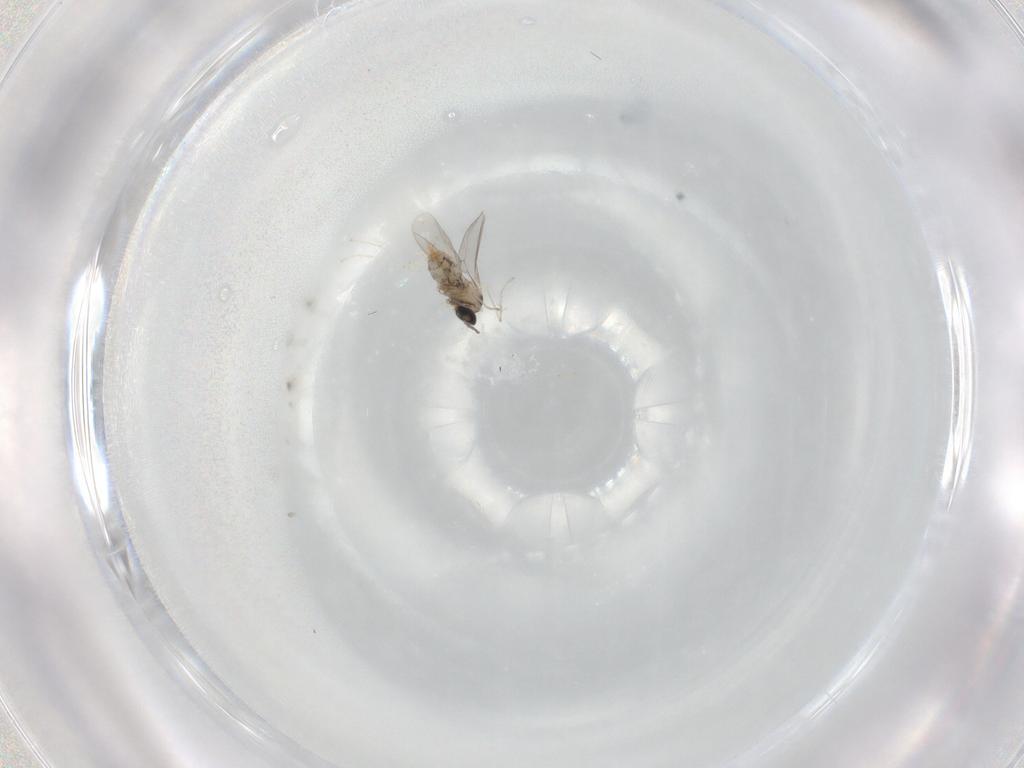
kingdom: Animalia
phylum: Arthropoda
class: Insecta
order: Diptera
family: Cecidomyiidae
